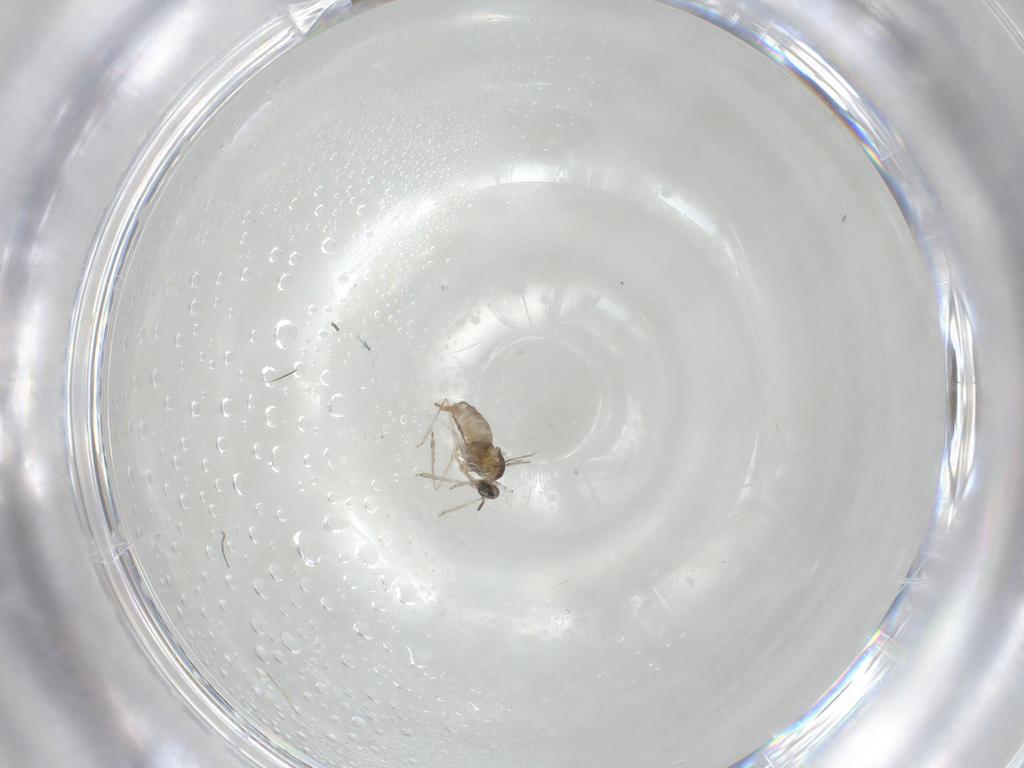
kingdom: Animalia
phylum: Arthropoda
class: Insecta
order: Diptera
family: Cecidomyiidae
